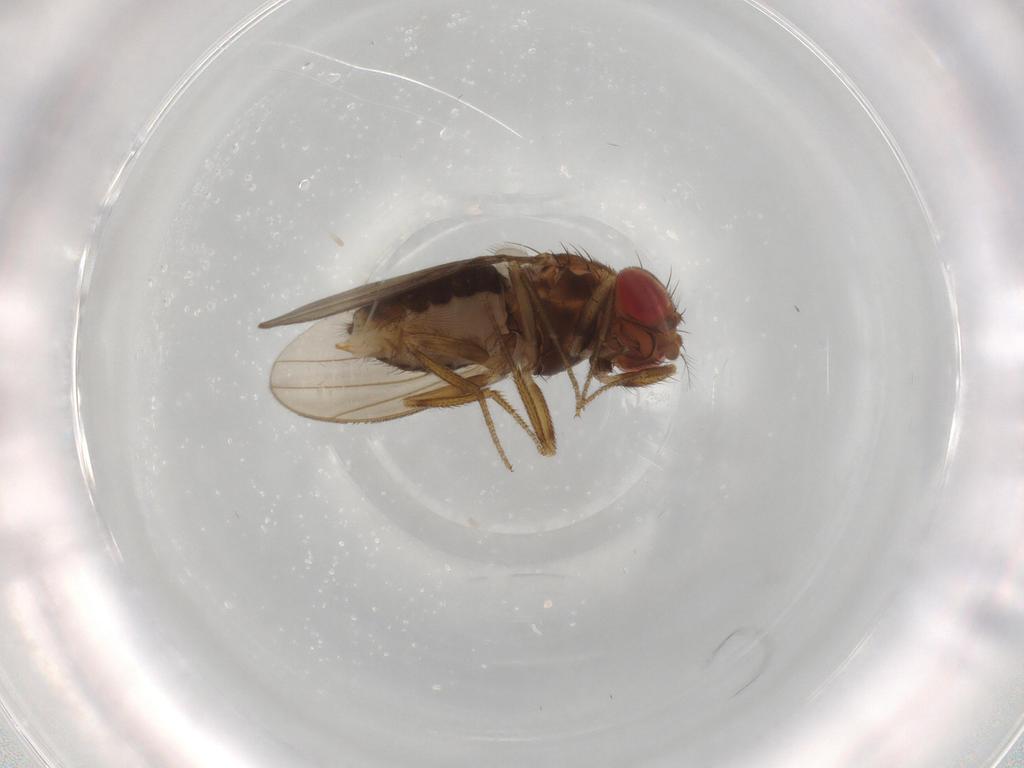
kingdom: Animalia
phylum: Arthropoda
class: Insecta
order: Diptera
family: Drosophilidae
